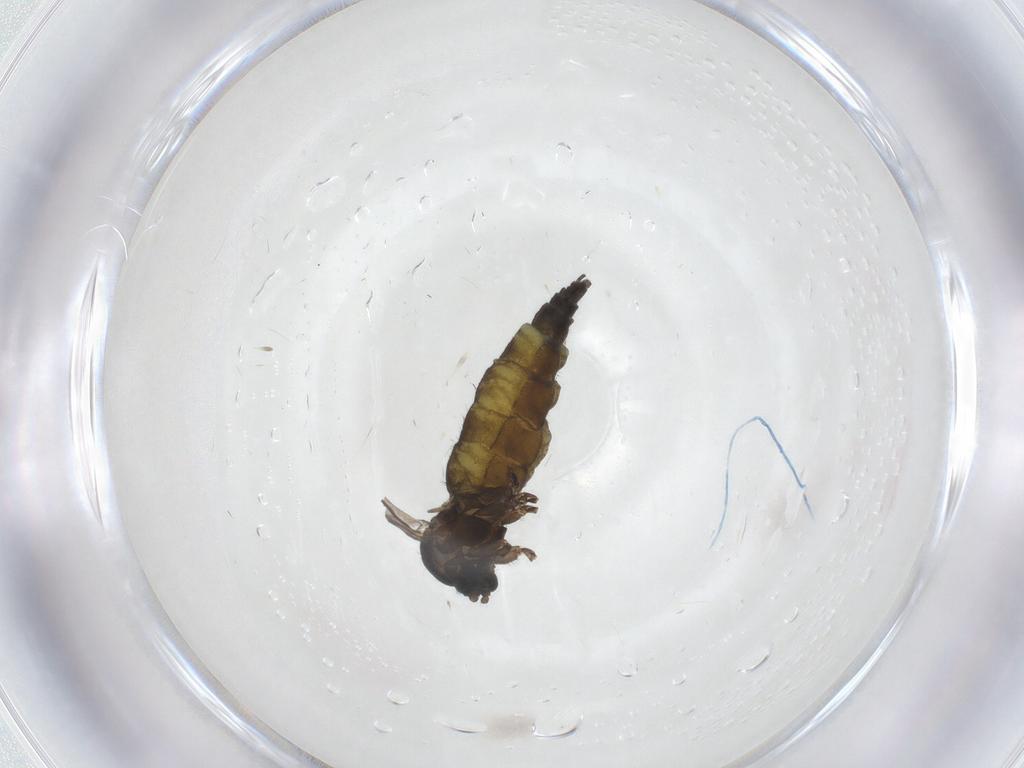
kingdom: Animalia
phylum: Arthropoda
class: Insecta
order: Diptera
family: Sciaridae
